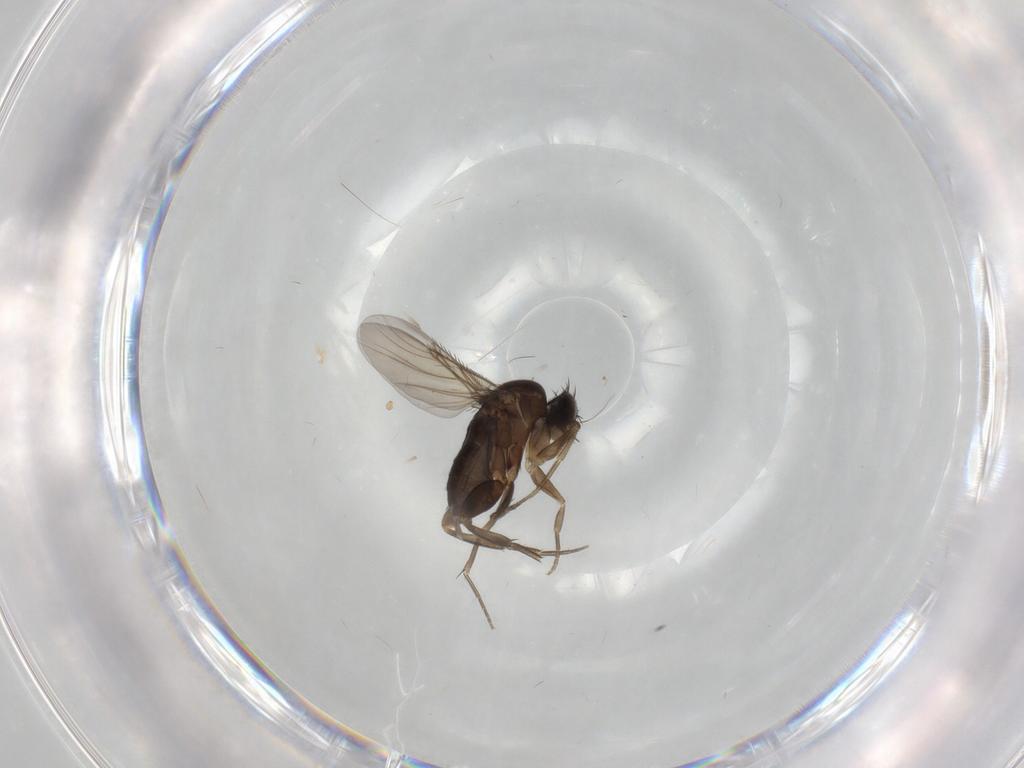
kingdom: Animalia
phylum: Arthropoda
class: Insecta
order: Diptera
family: Phoridae
